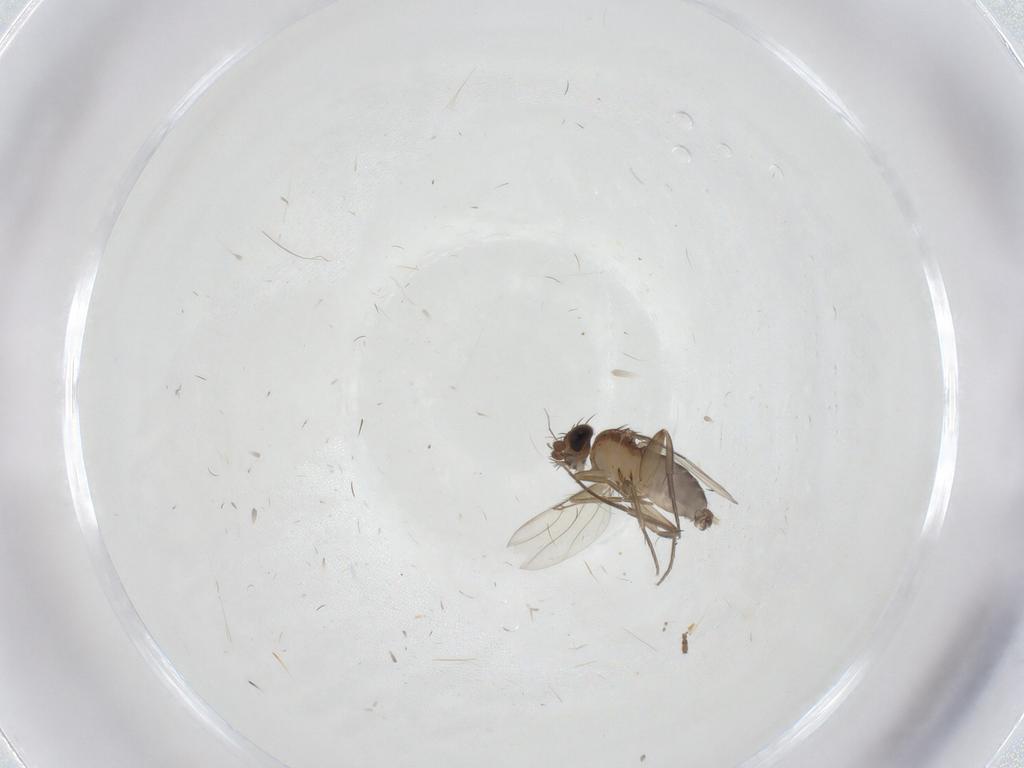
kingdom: Animalia
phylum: Arthropoda
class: Insecta
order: Diptera
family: Psychodidae
